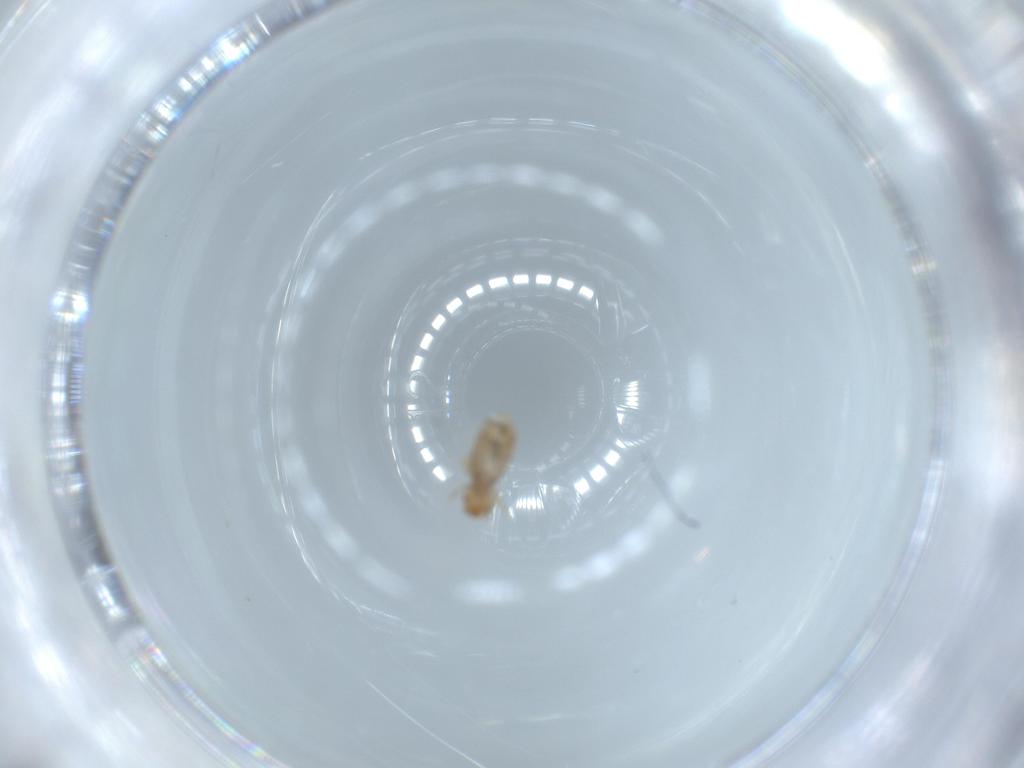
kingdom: Animalia
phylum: Arthropoda
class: Insecta
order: Psocodea
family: Liposcelididae
